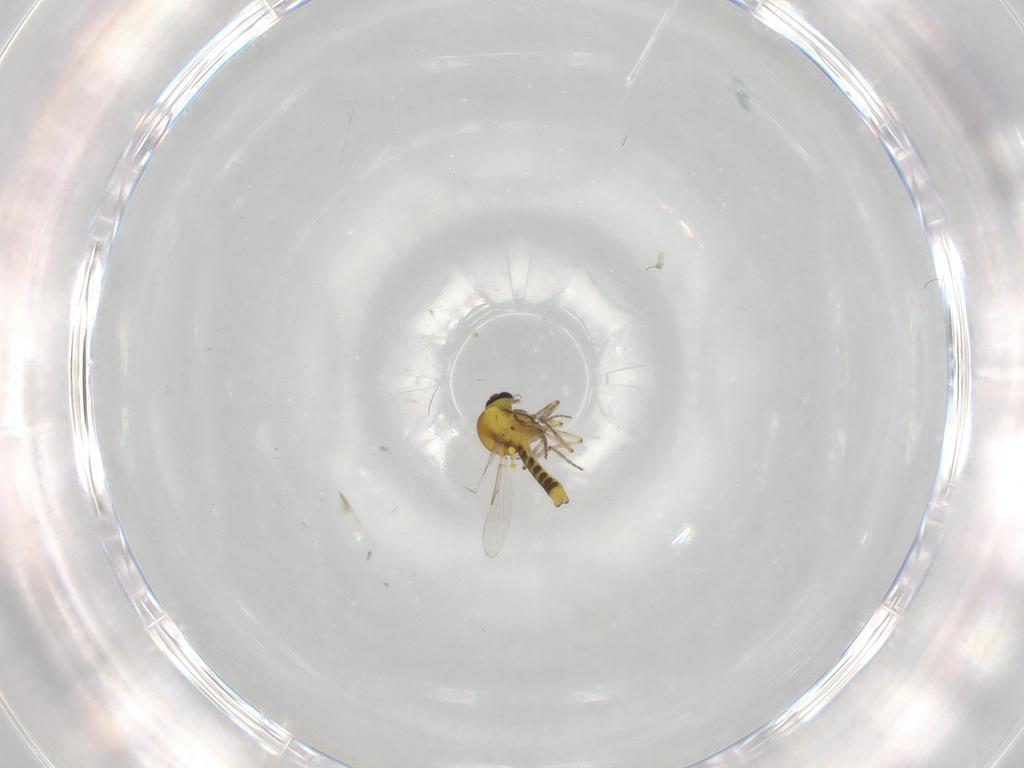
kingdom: Animalia
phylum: Arthropoda
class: Insecta
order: Diptera
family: Ceratopogonidae
